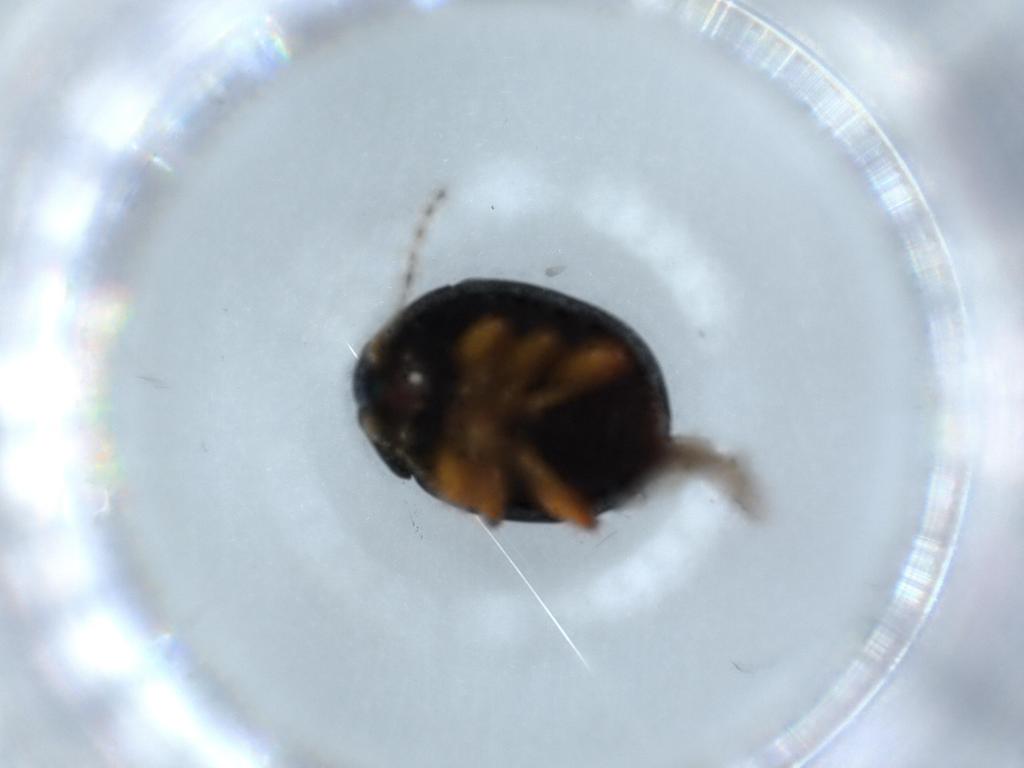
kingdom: Animalia
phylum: Arthropoda
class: Insecta
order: Coleoptera
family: Chrysomelidae
